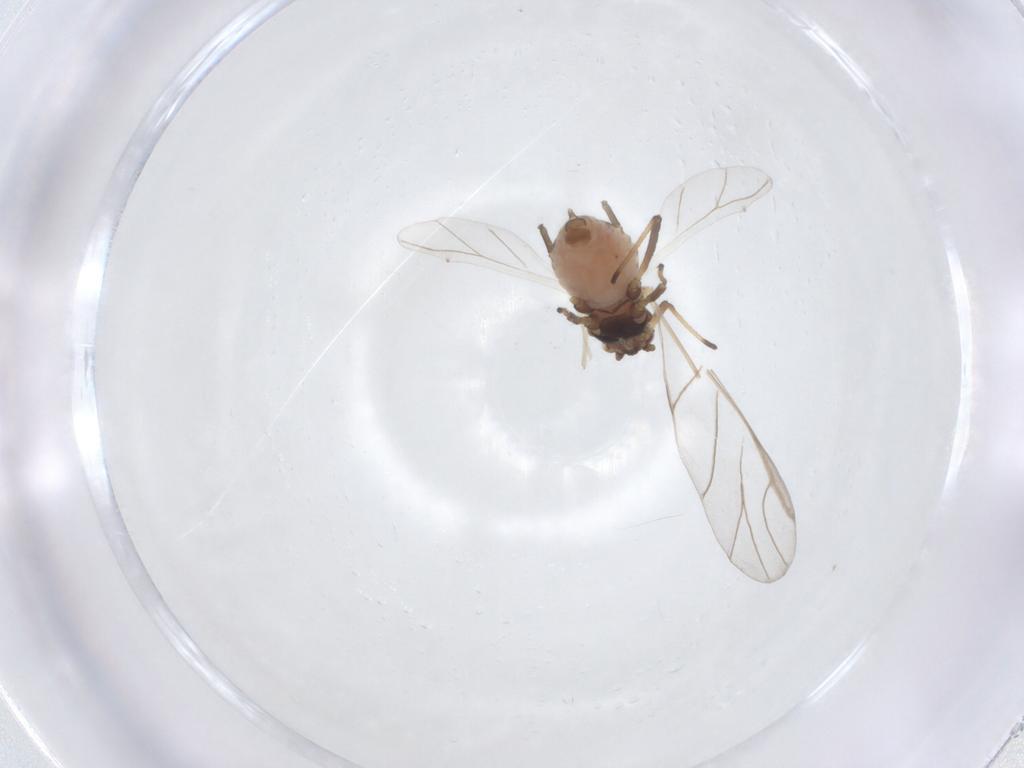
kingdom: Animalia
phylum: Arthropoda
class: Insecta
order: Hemiptera
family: Aphididae
